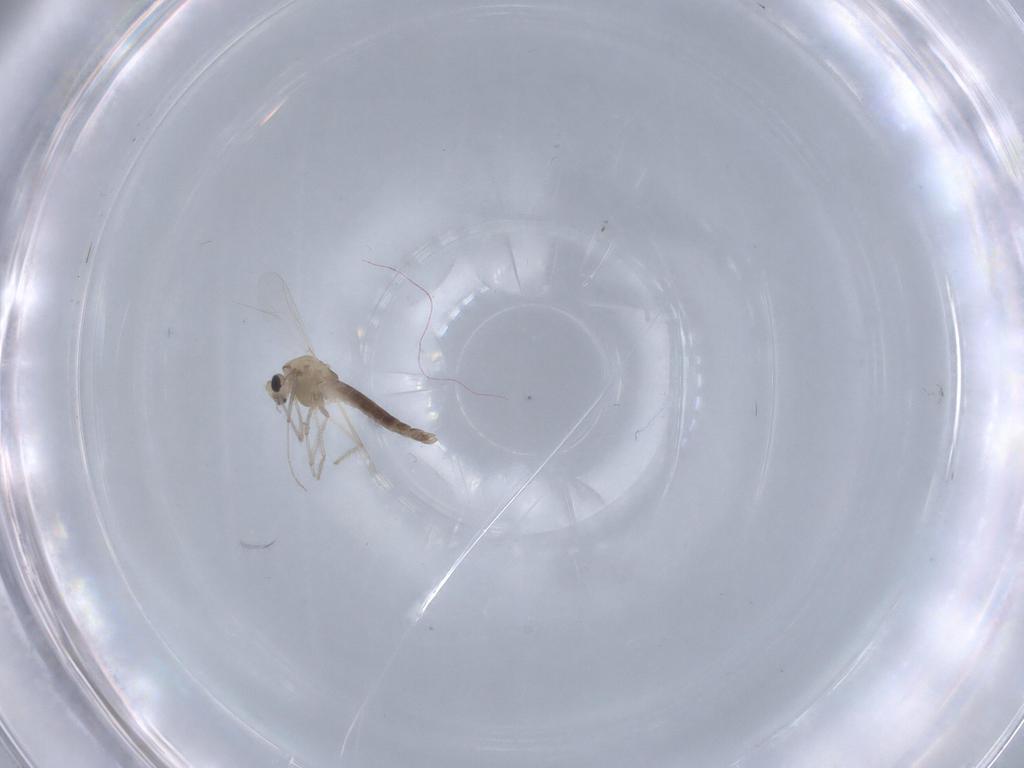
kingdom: Animalia
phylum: Arthropoda
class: Insecta
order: Diptera
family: Chironomidae
